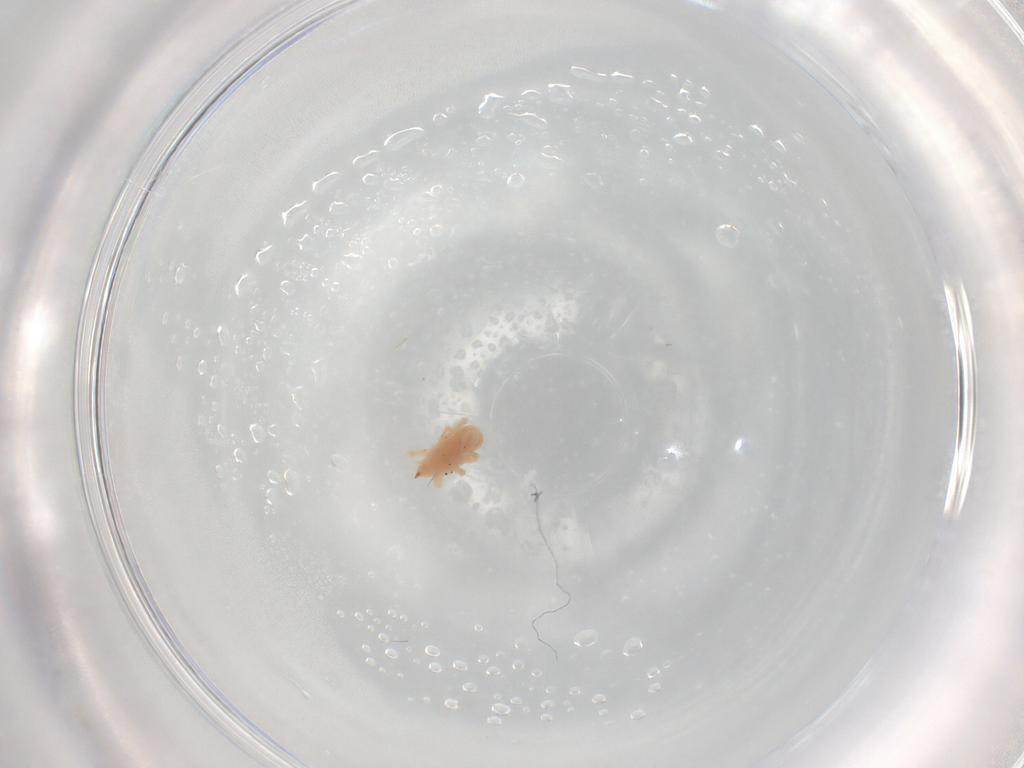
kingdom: Animalia
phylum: Arthropoda
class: Arachnida
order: Trombidiformes
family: Bdellidae
